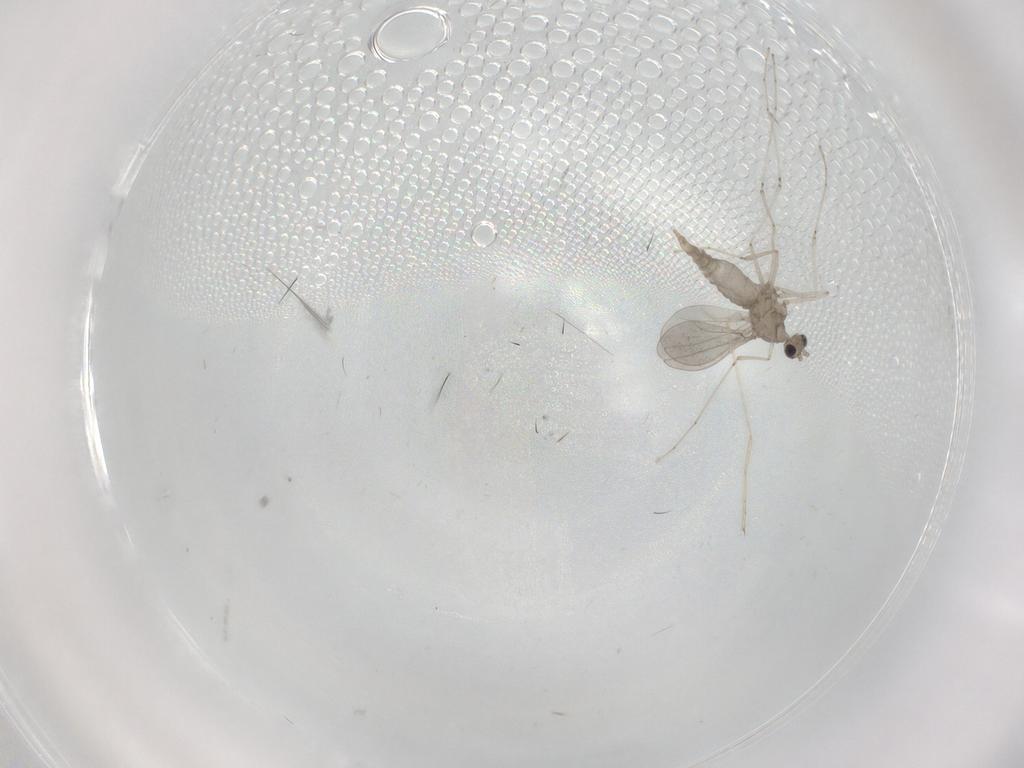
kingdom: Animalia
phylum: Arthropoda
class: Insecta
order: Diptera
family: Cecidomyiidae
